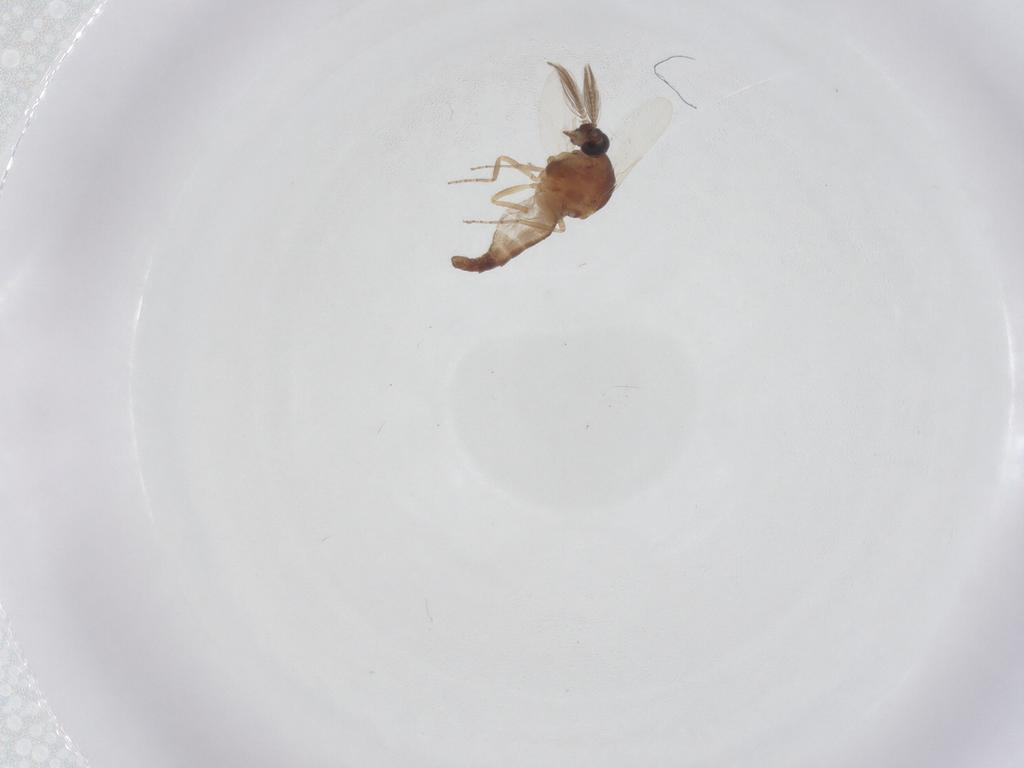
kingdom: Animalia
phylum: Arthropoda
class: Insecta
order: Diptera
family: Ceratopogonidae
